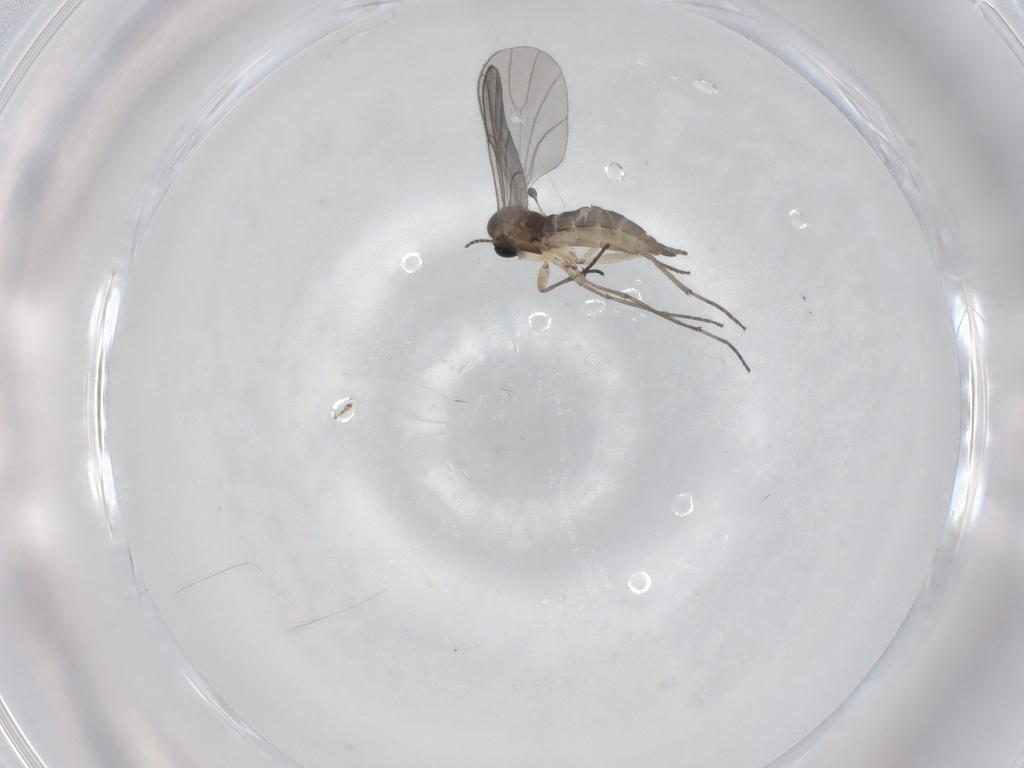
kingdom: Animalia
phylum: Arthropoda
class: Insecta
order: Diptera
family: Sciaridae
